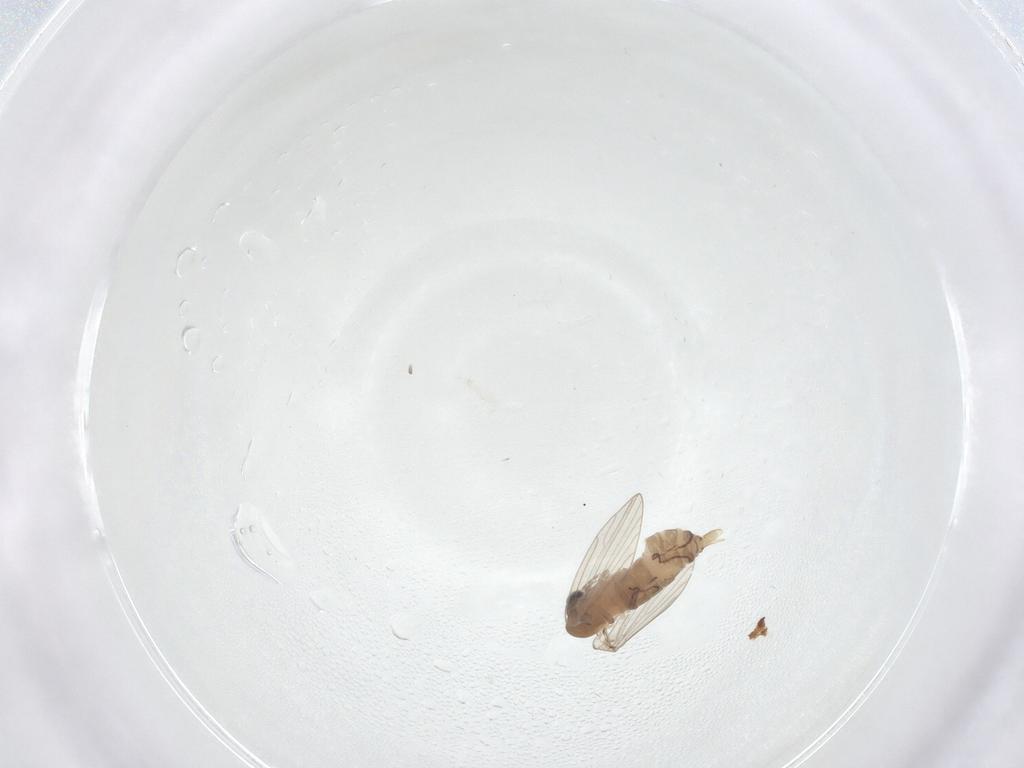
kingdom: Animalia
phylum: Arthropoda
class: Insecta
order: Diptera
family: Psychodidae
